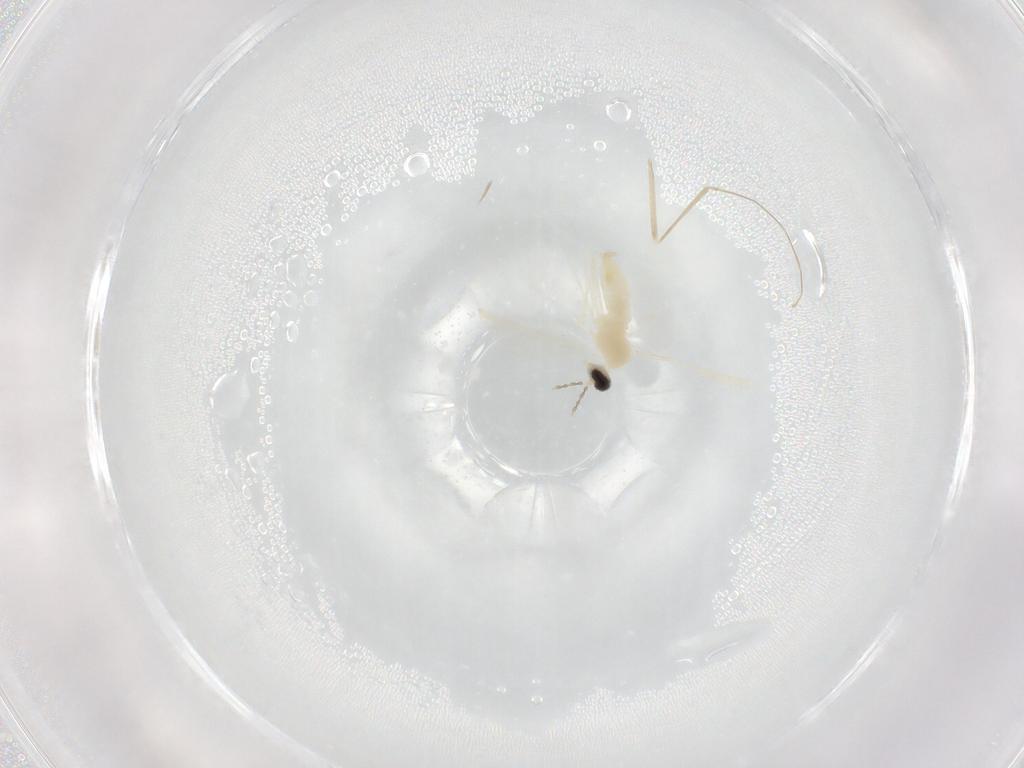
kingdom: Animalia
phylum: Arthropoda
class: Insecta
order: Diptera
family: Cecidomyiidae
